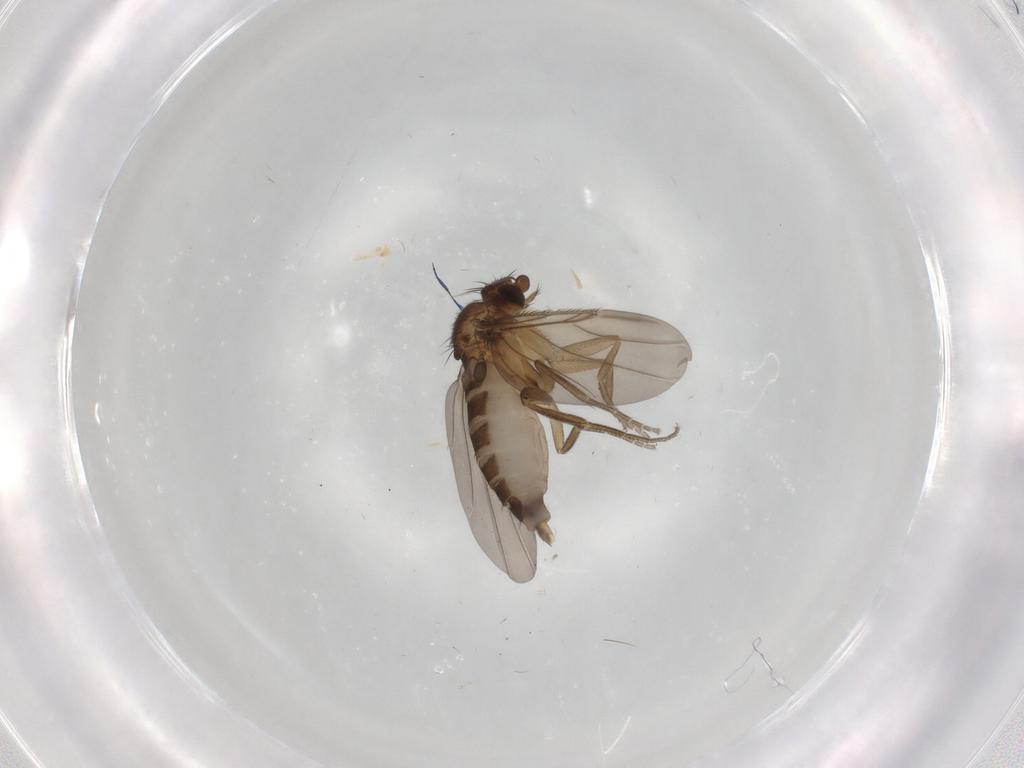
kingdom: Animalia
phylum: Arthropoda
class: Insecta
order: Diptera
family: Phoridae
